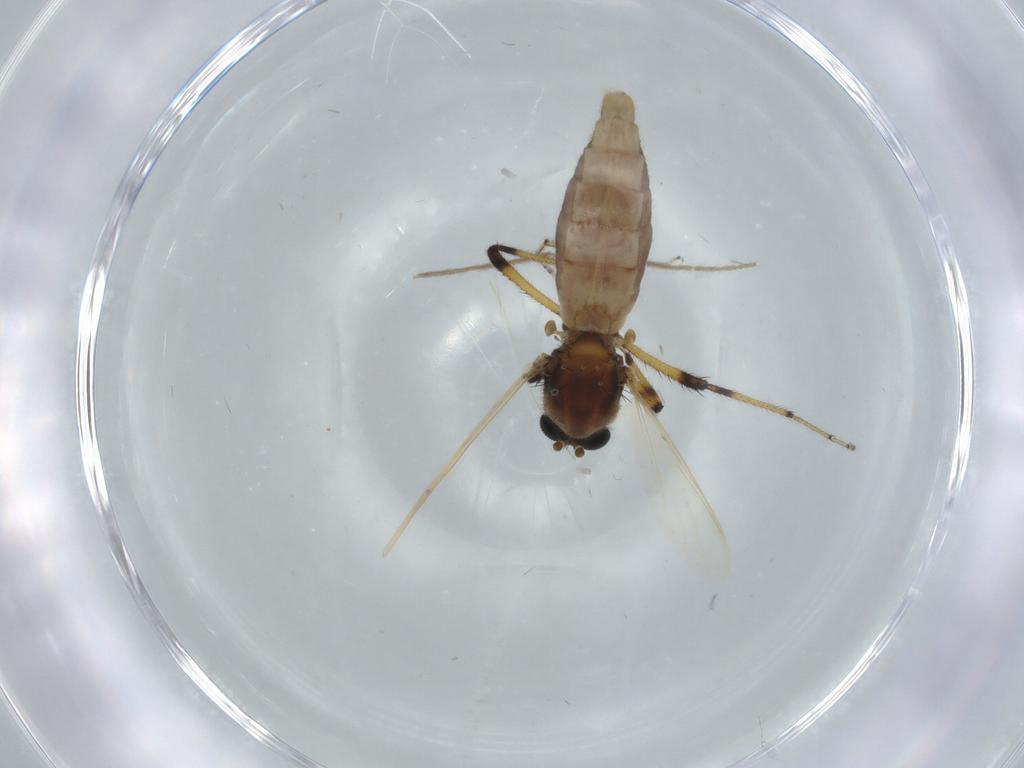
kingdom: Animalia
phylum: Arthropoda
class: Insecta
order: Diptera
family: Ceratopogonidae
